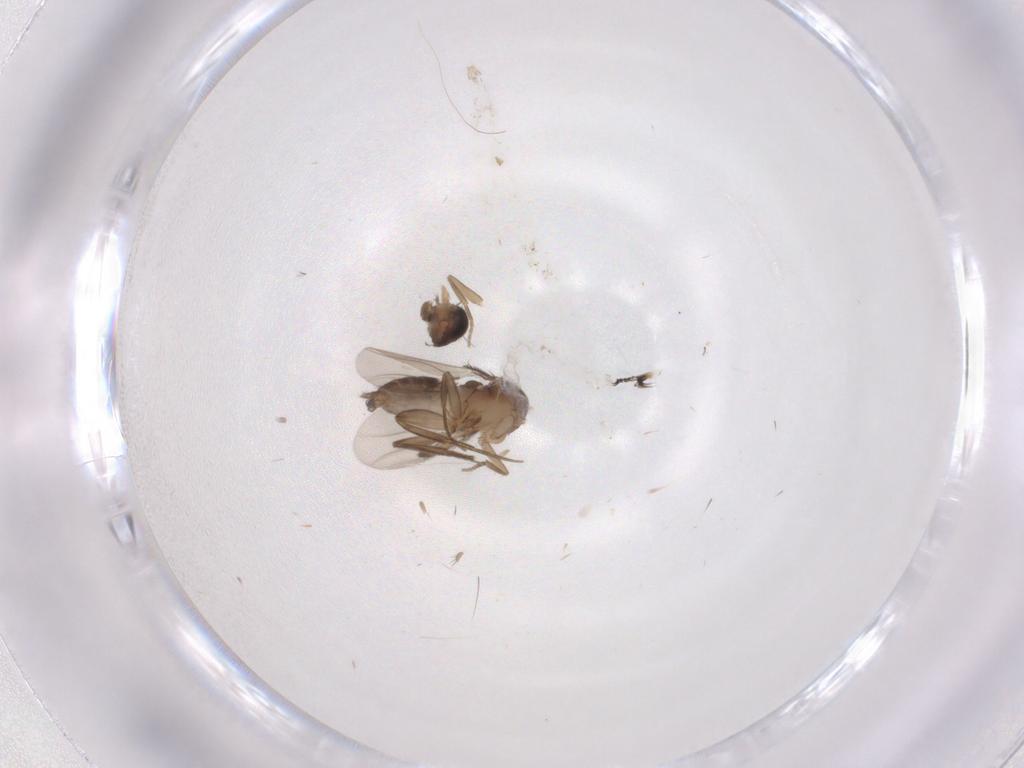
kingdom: Animalia
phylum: Arthropoda
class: Insecta
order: Diptera
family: Phoridae
